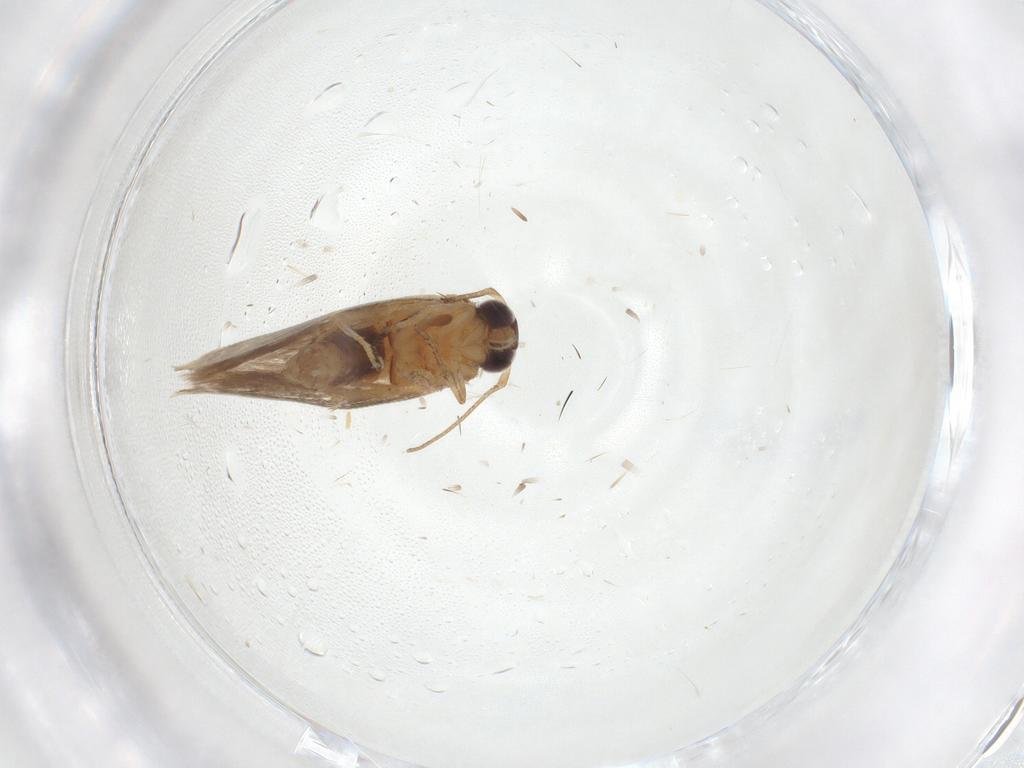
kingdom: Animalia
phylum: Arthropoda
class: Insecta
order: Lepidoptera
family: Gelechiidae
